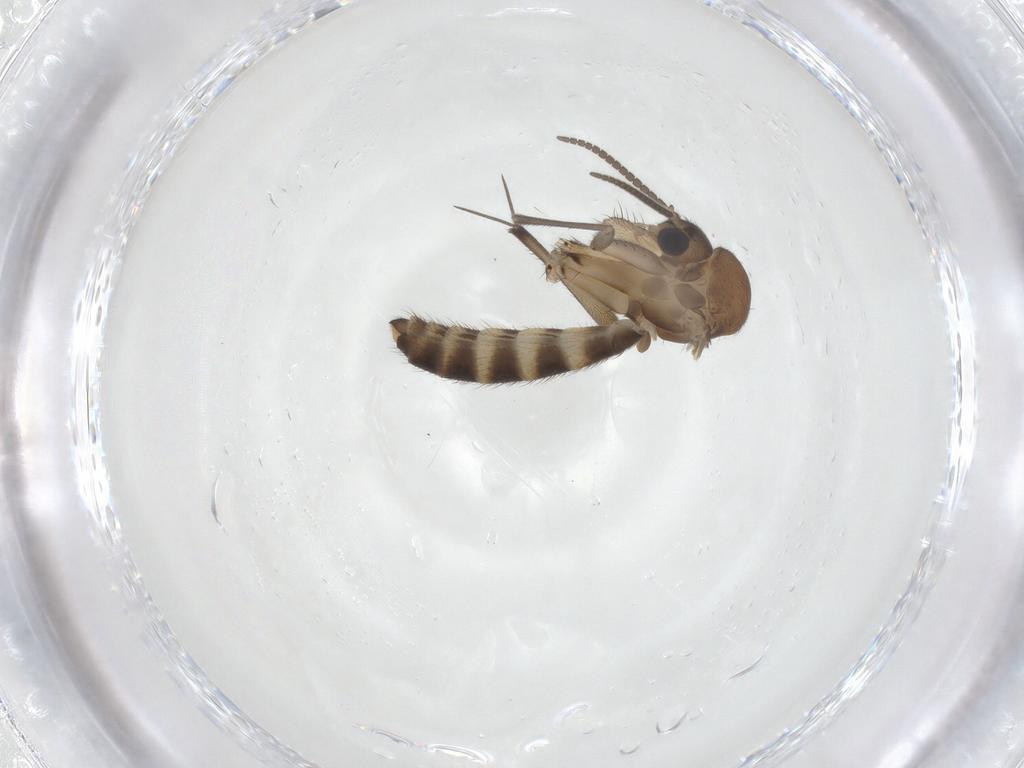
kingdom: Animalia
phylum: Arthropoda
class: Insecta
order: Diptera
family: Mycetophilidae
